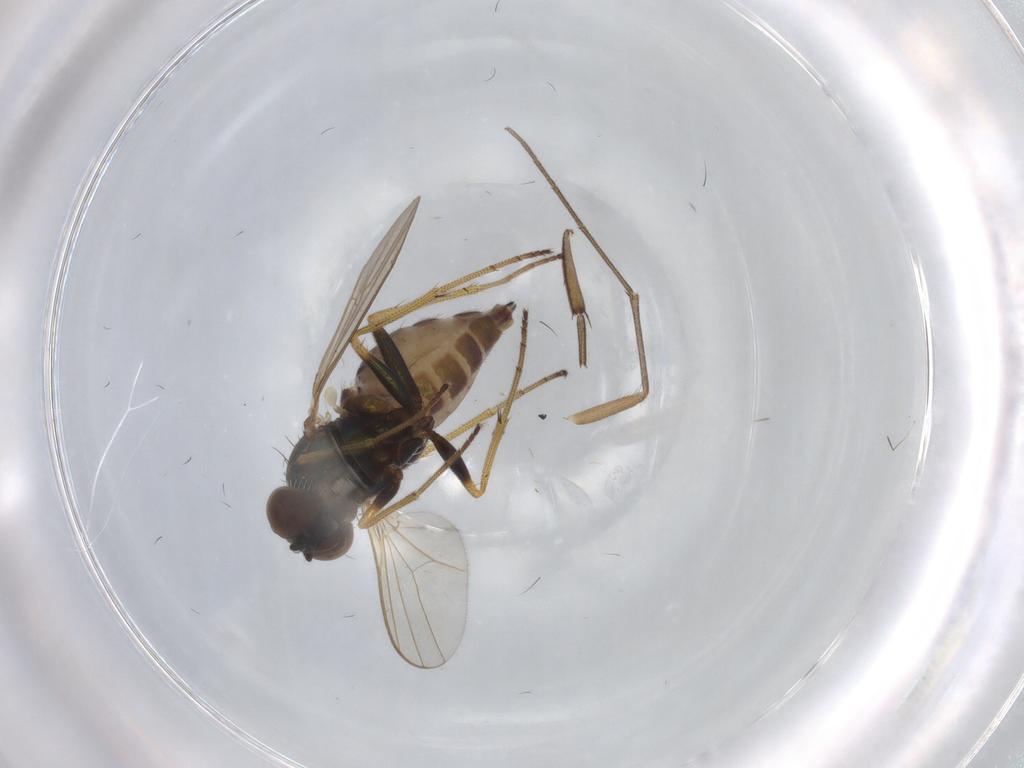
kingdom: Animalia
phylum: Arthropoda
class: Insecta
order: Diptera
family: Dolichopodidae
